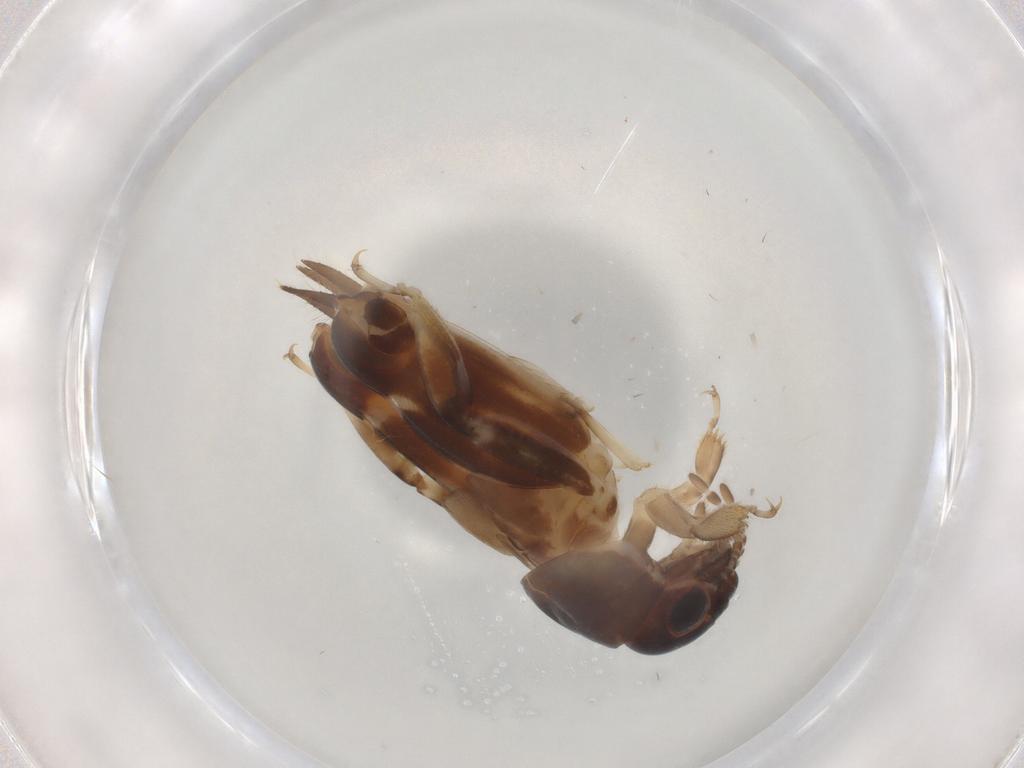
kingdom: Animalia
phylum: Arthropoda
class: Insecta
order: Orthoptera
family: Tridactylidae
